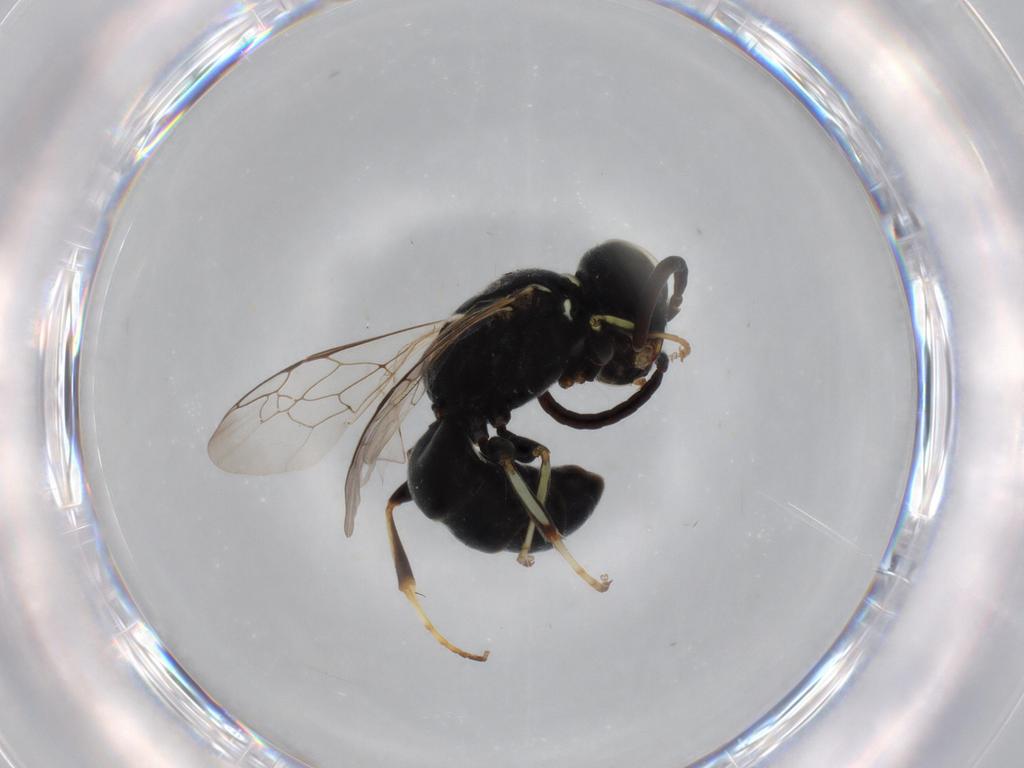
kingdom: Animalia
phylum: Arthropoda
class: Insecta
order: Hymenoptera
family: Mymaridae
